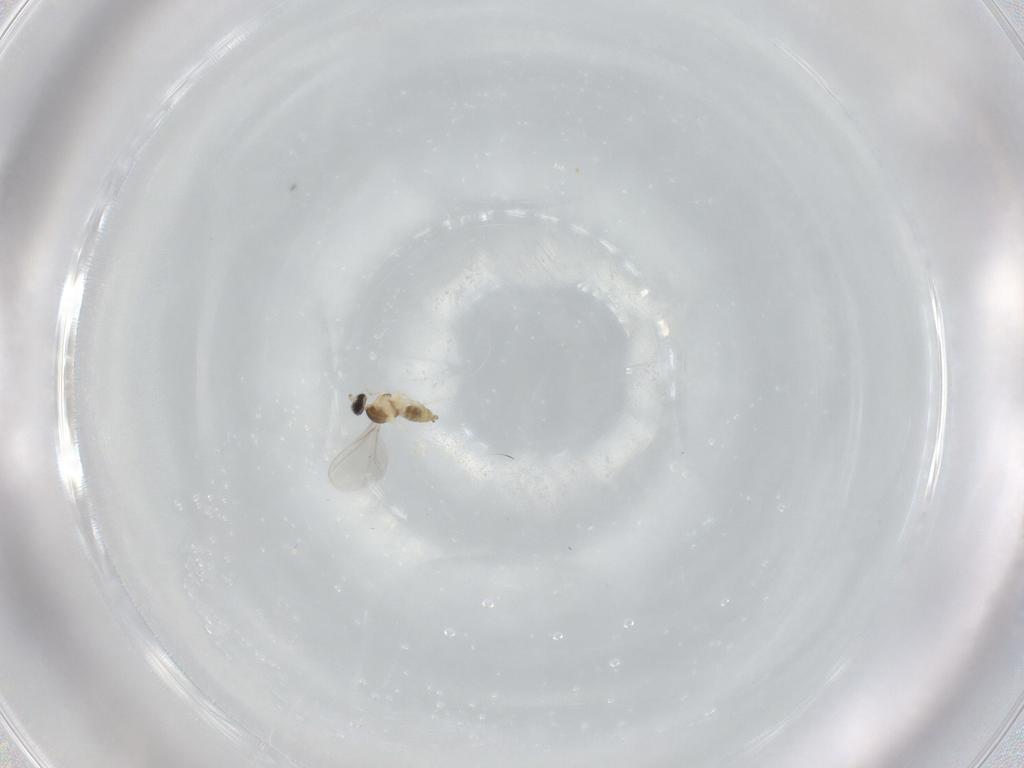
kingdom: Animalia
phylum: Arthropoda
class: Insecta
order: Diptera
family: Cecidomyiidae
